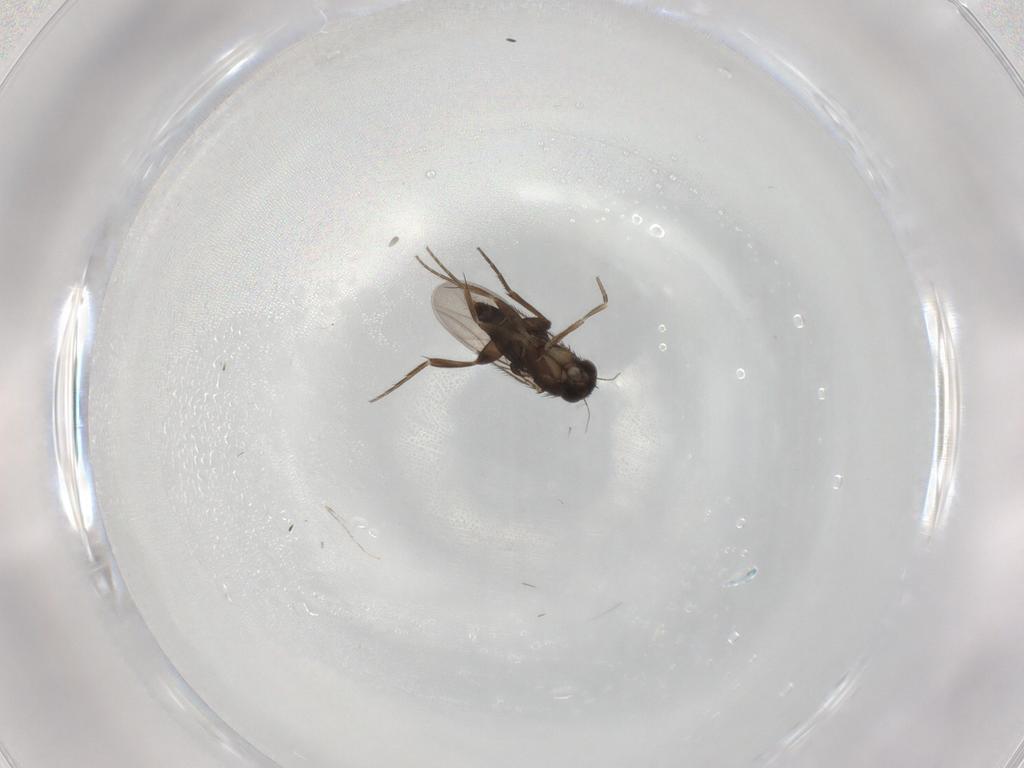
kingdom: Animalia
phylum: Arthropoda
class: Insecta
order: Diptera
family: Phoridae
